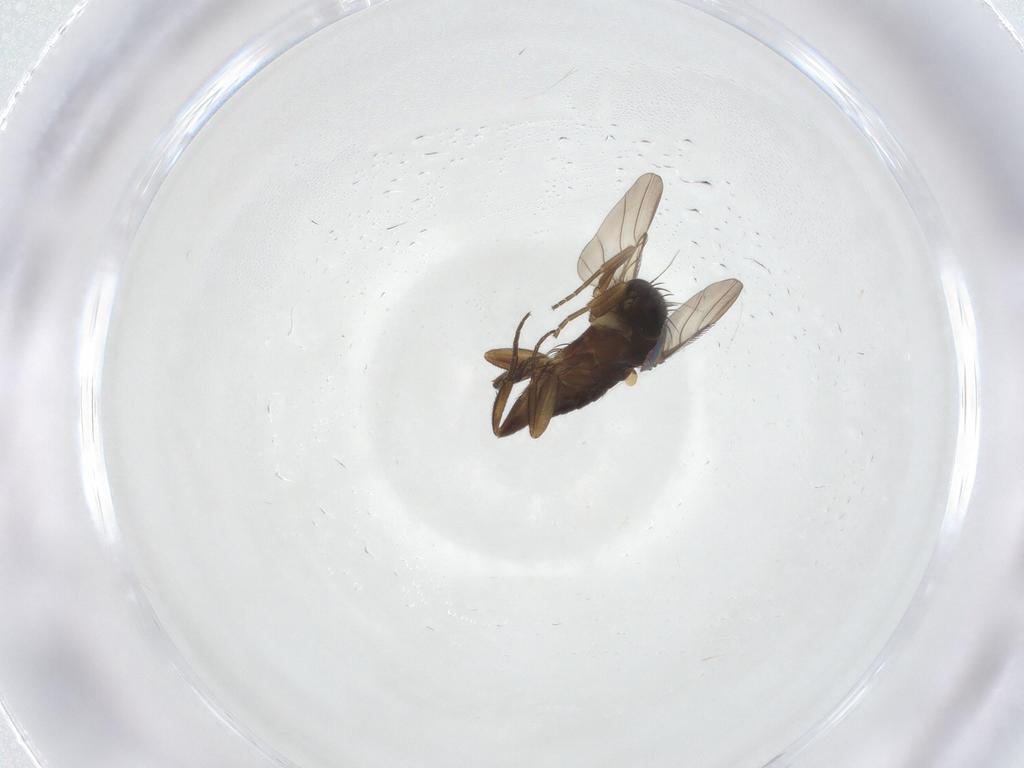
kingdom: Animalia
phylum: Arthropoda
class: Insecta
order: Diptera
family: Phoridae
